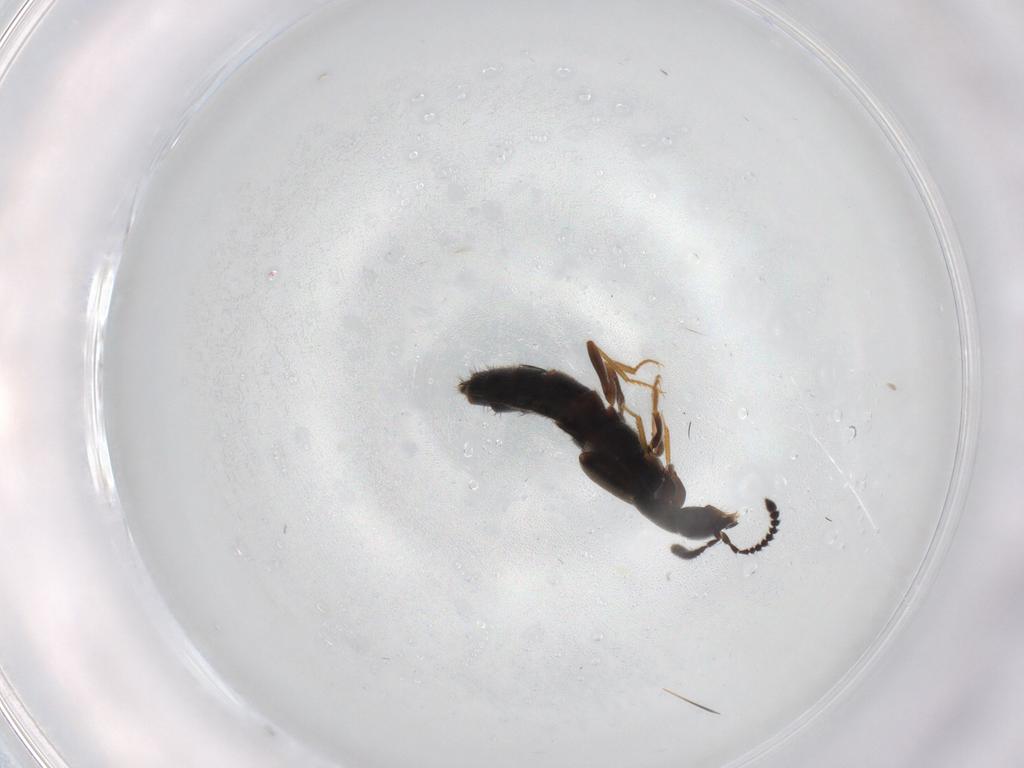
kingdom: Animalia
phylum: Arthropoda
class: Insecta
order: Coleoptera
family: Staphylinidae
